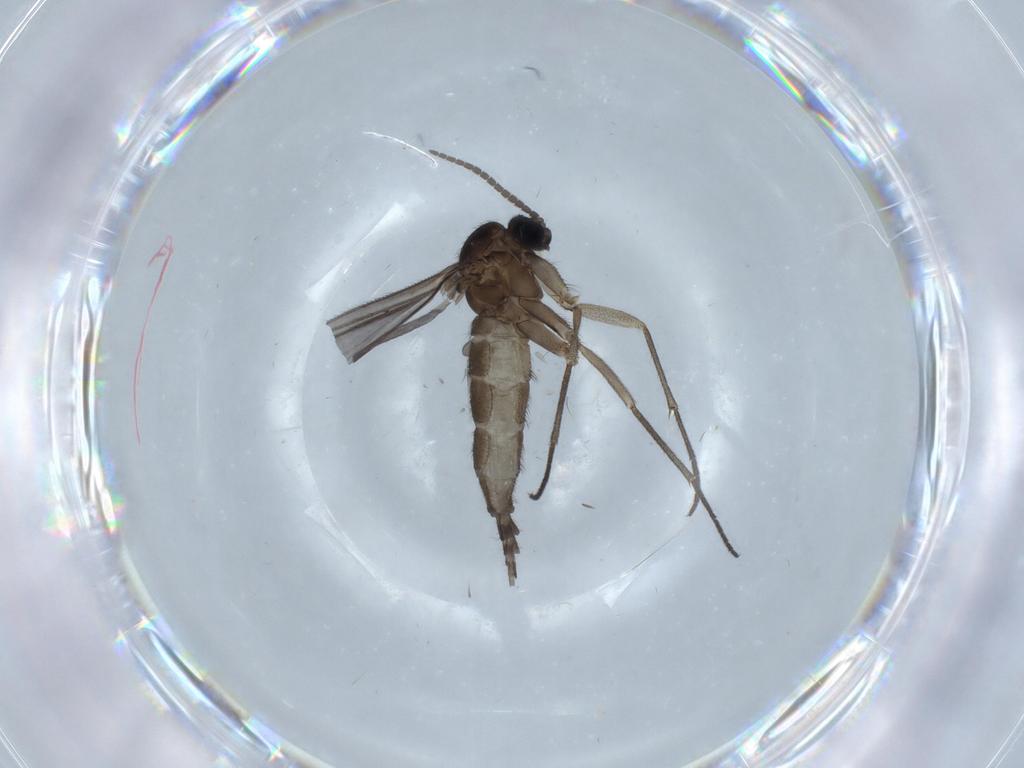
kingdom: Animalia
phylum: Arthropoda
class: Insecta
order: Diptera
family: Sciaridae
